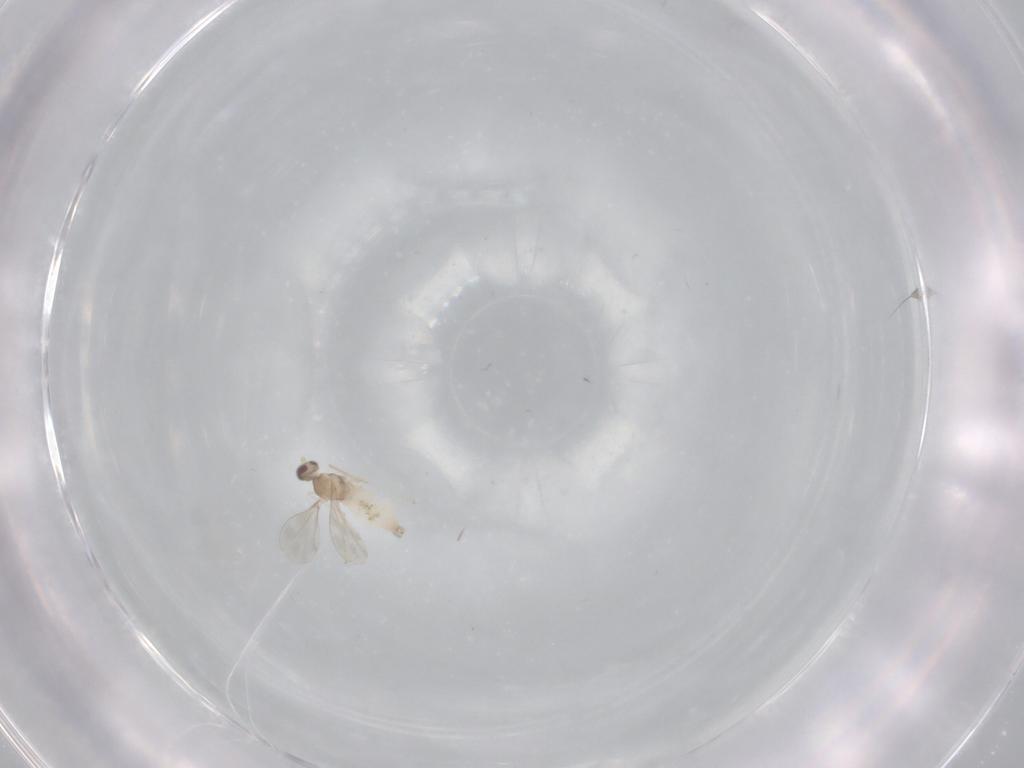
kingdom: Animalia
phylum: Arthropoda
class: Insecta
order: Diptera
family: Cecidomyiidae
